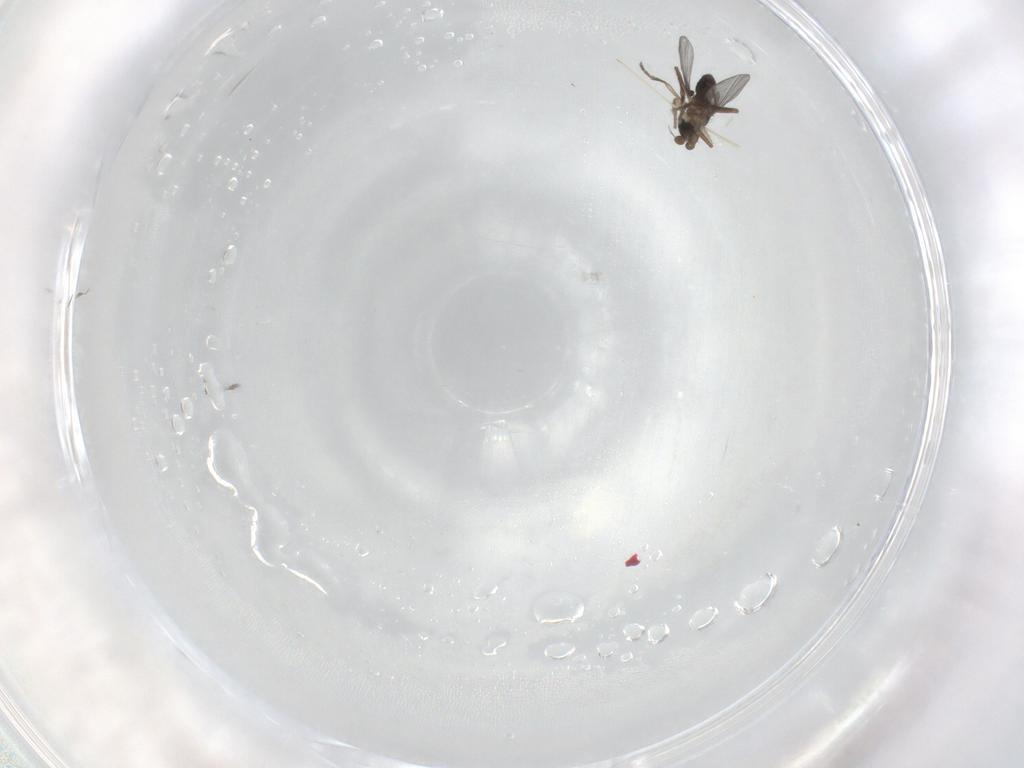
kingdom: Animalia
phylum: Arthropoda
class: Insecta
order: Diptera
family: Phoridae
